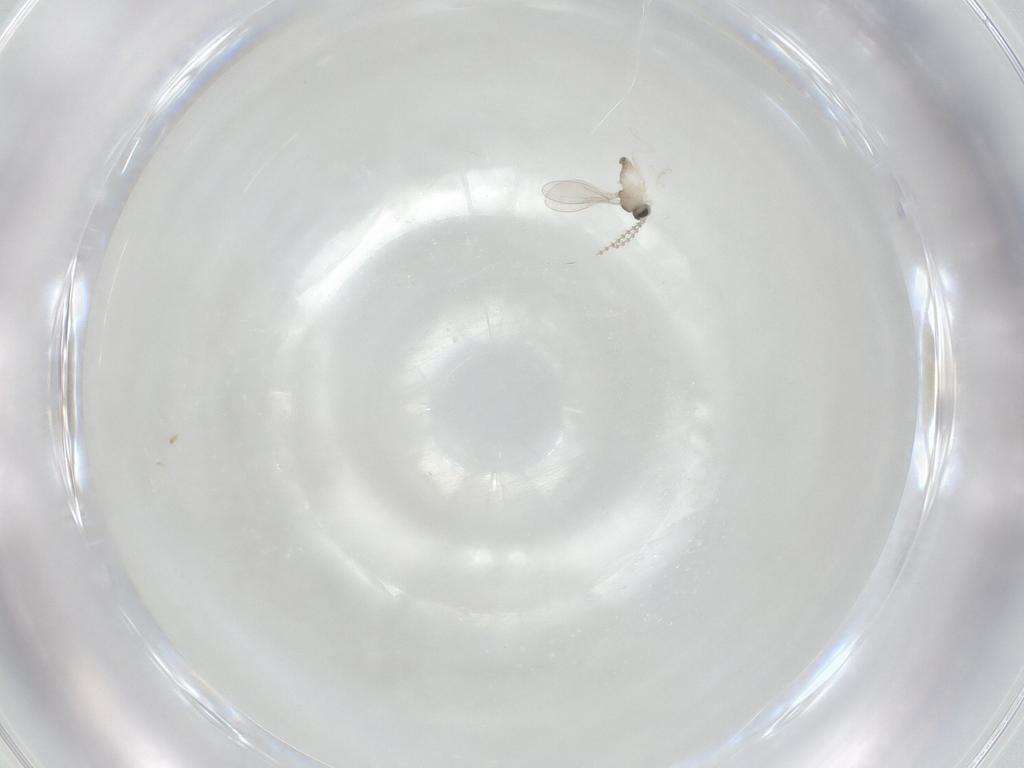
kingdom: Animalia
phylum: Arthropoda
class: Insecta
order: Diptera
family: Cecidomyiidae
